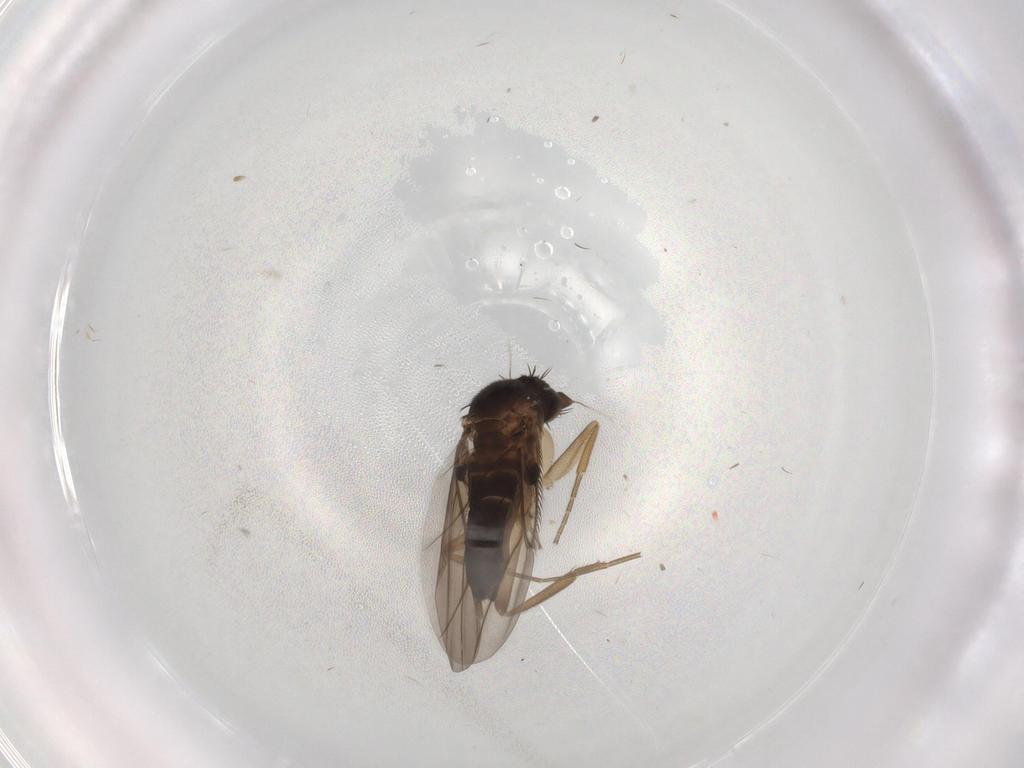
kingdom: Animalia
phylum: Arthropoda
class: Insecta
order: Diptera
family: Phoridae
